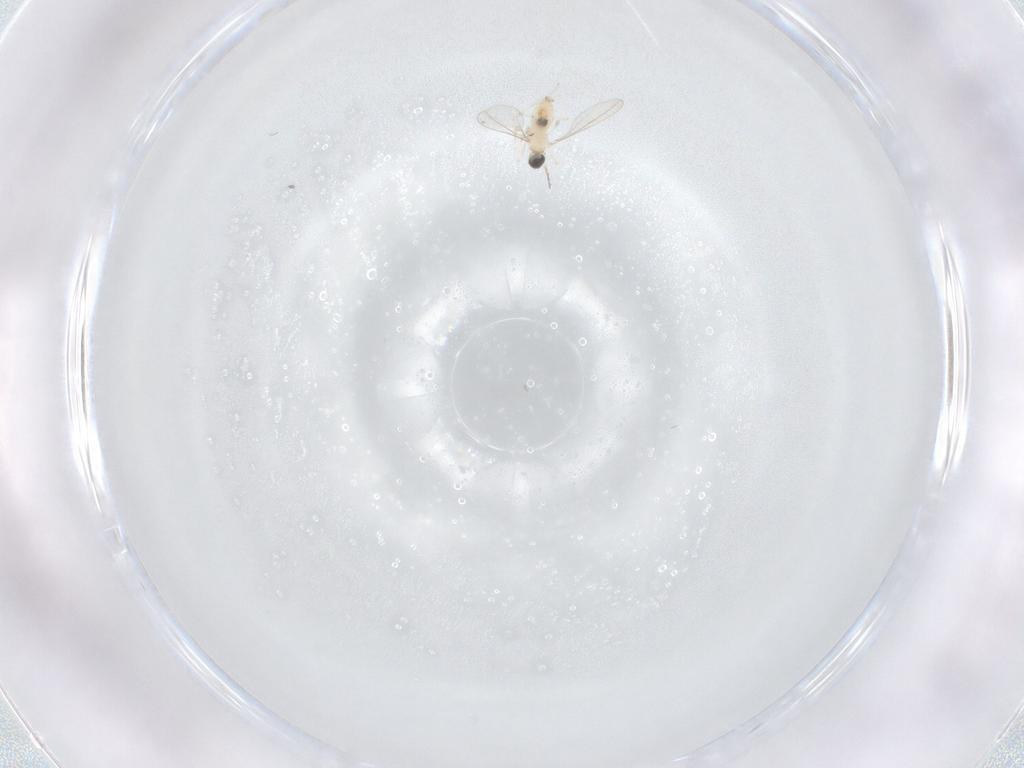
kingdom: Animalia
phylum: Arthropoda
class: Insecta
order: Diptera
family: Cecidomyiidae
